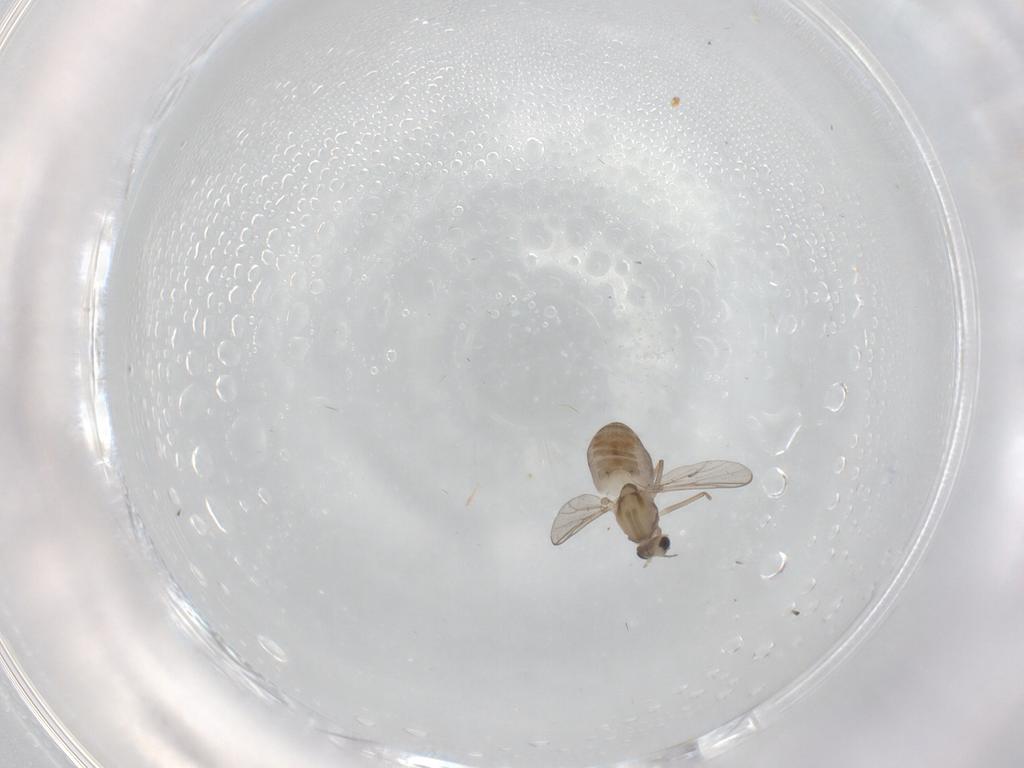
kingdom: Animalia
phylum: Arthropoda
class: Insecta
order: Diptera
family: Chironomidae
